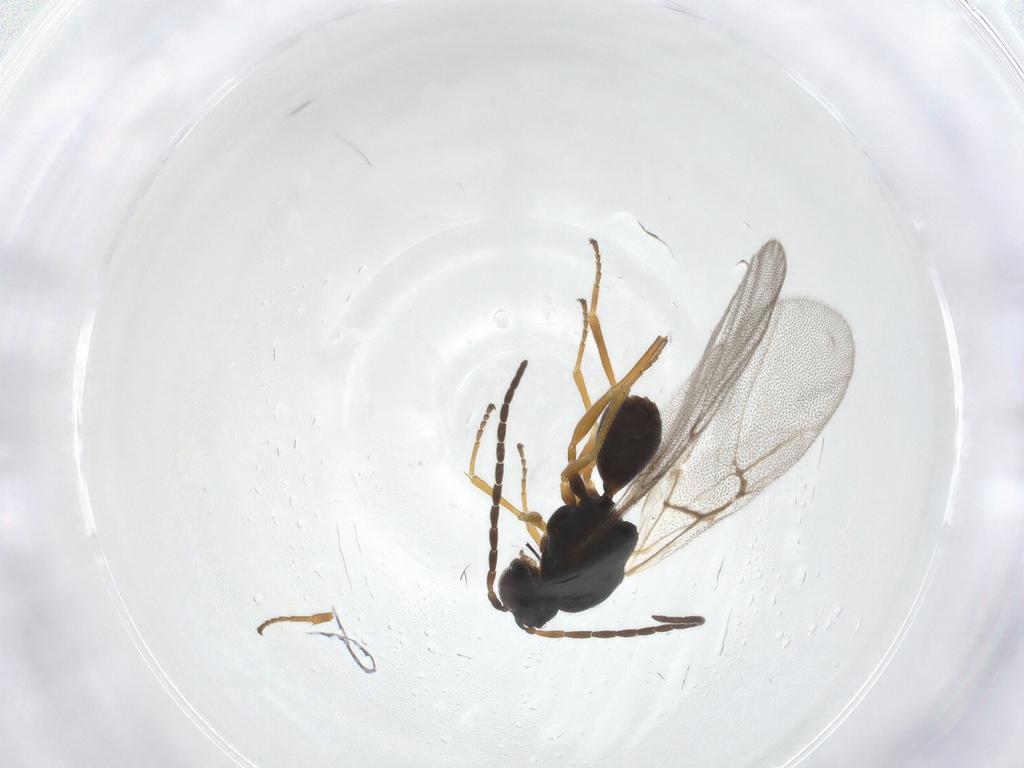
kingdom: Animalia
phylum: Arthropoda
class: Insecta
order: Hymenoptera
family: Cynipidae
